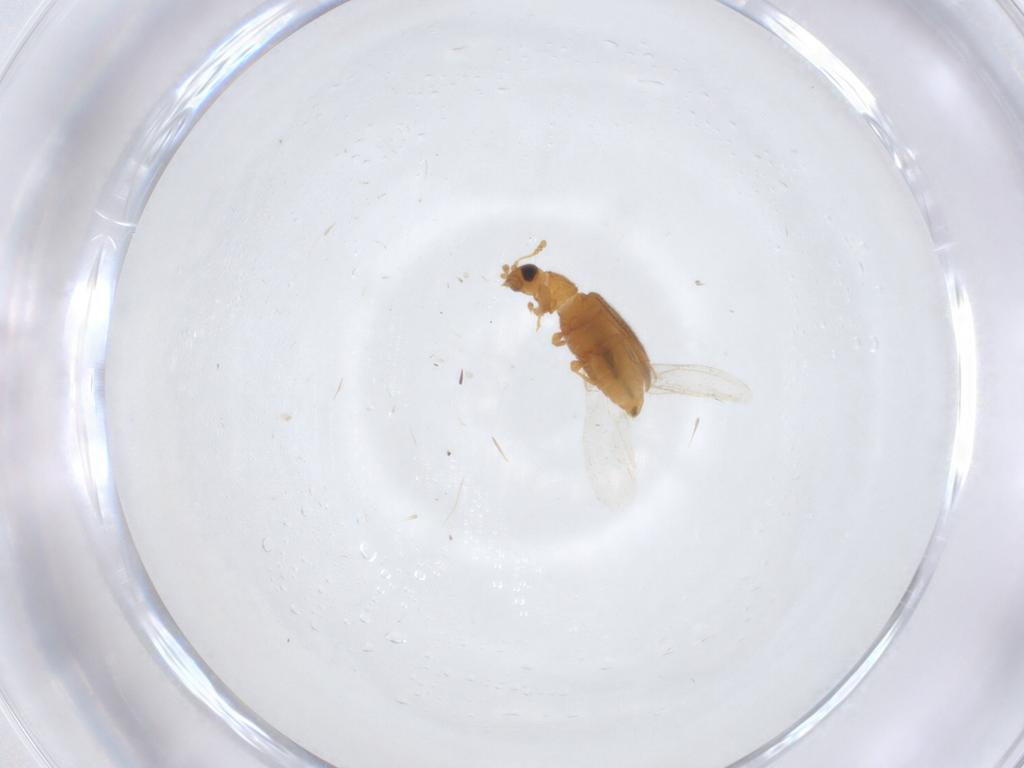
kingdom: Animalia
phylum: Arthropoda
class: Insecta
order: Coleoptera
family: Latridiidae
